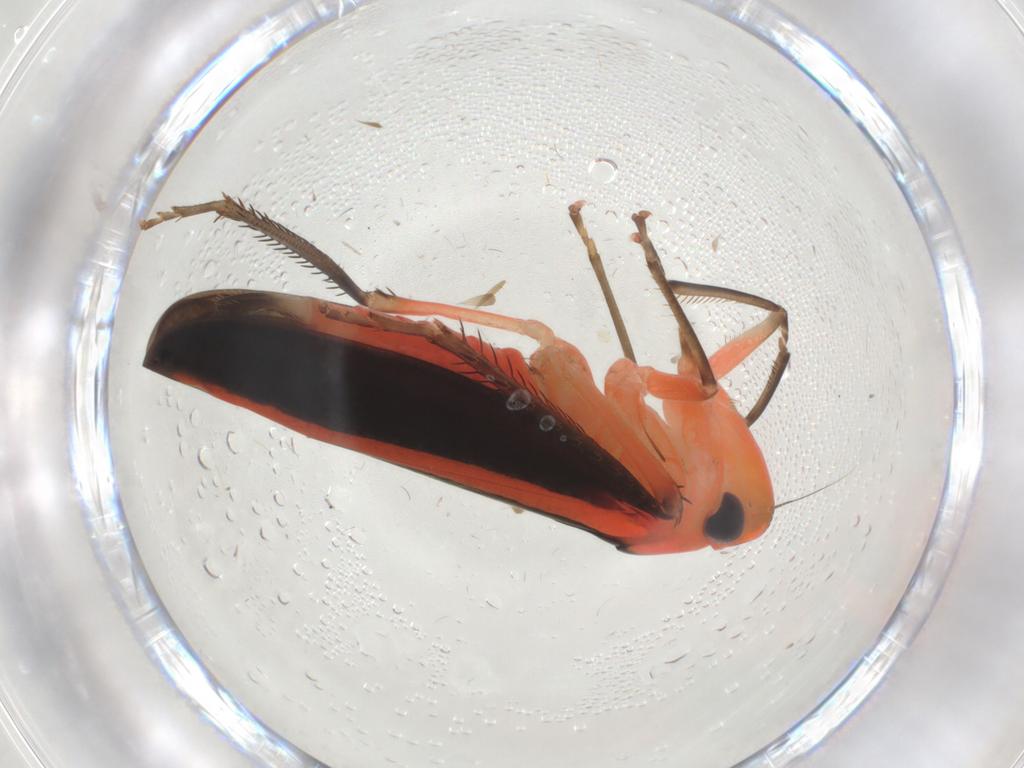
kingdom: Animalia
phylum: Arthropoda
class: Insecta
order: Hemiptera
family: Cicadellidae
